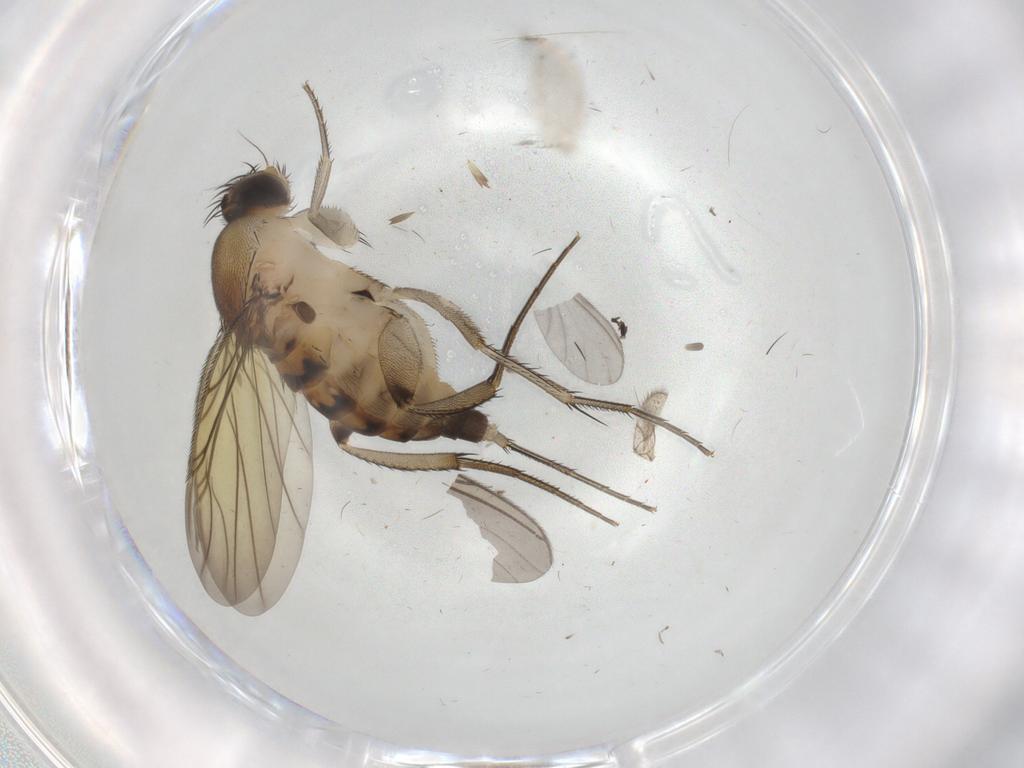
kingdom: Animalia
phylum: Arthropoda
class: Insecta
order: Diptera
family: Phoridae
